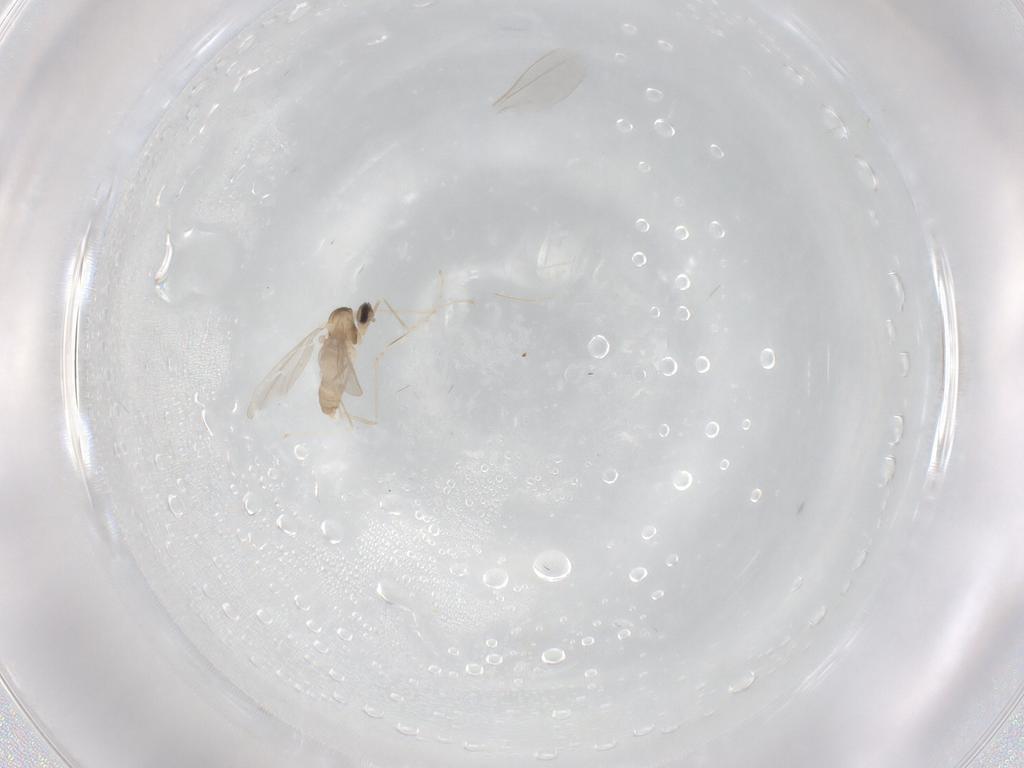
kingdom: Animalia
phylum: Arthropoda
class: Insecta
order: Diptera
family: Cecidomyiidae
